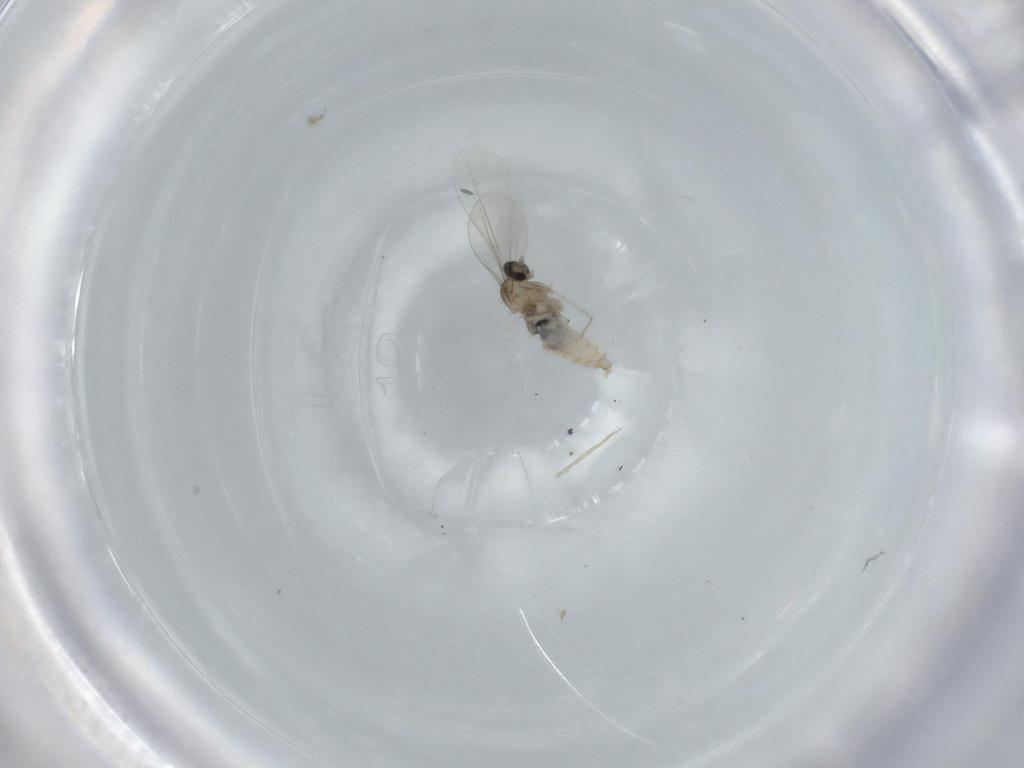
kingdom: Animalia
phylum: Arthropoda
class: Insecta
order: Diptera
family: Cecidomyiidae
